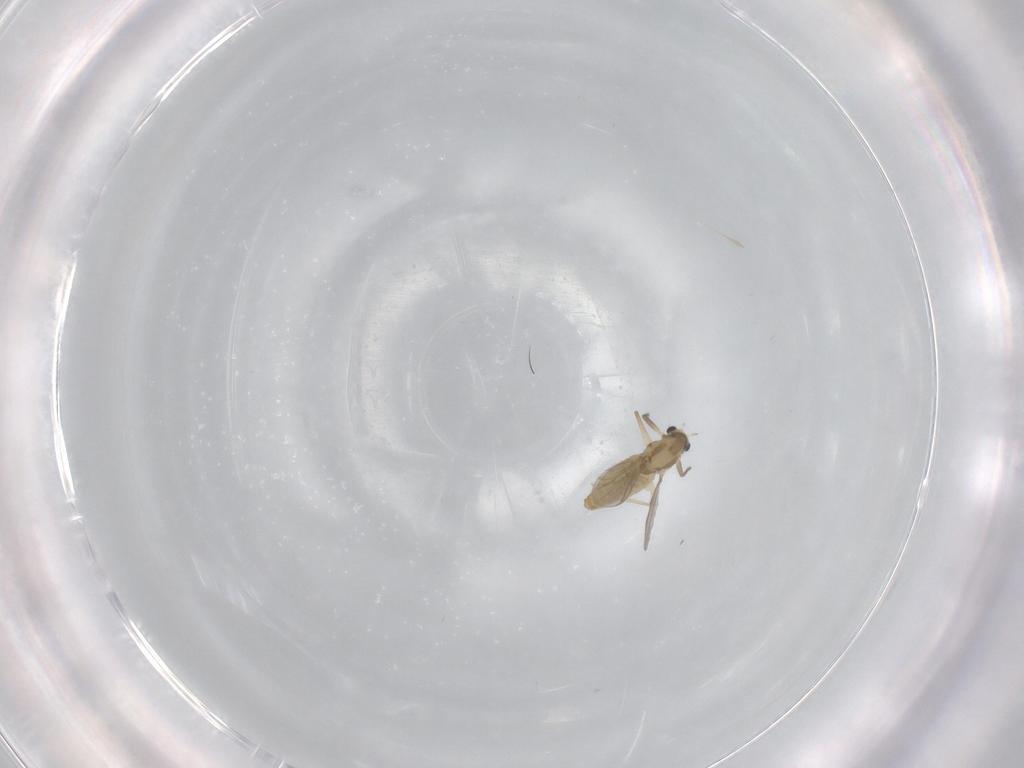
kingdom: Animalia
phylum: Arthropoda
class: Insecta
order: Diptera
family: Chironomidae
